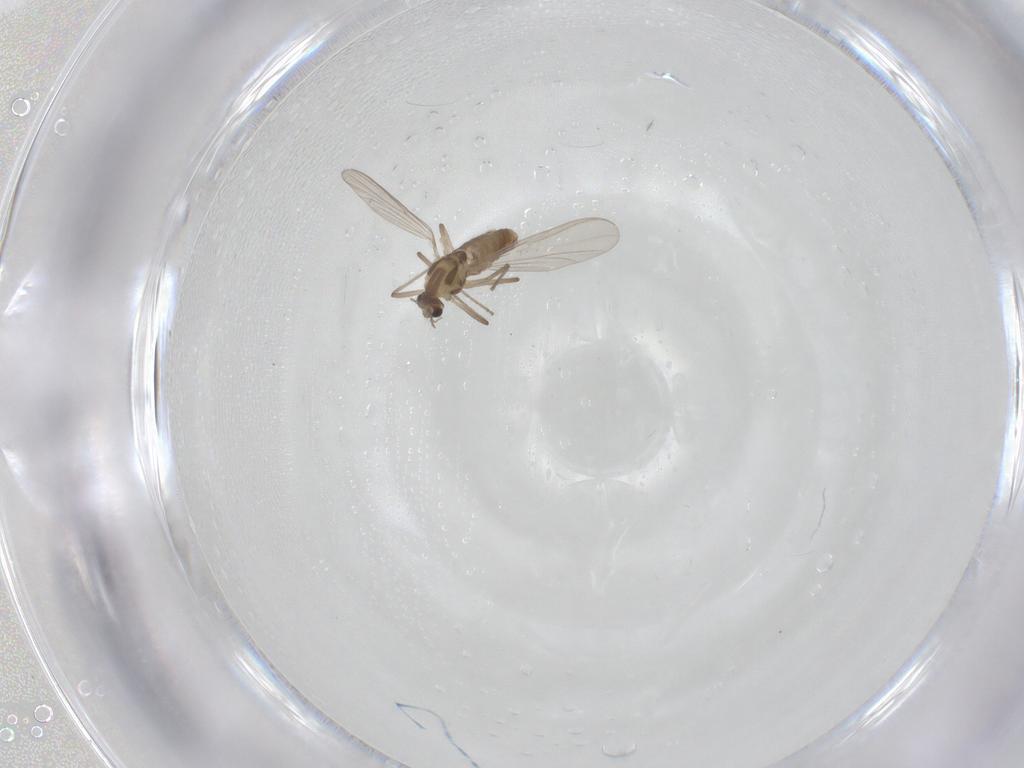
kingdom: Animalia
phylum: Arthropoda
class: Insecta
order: Diptera
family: Chironomidae
